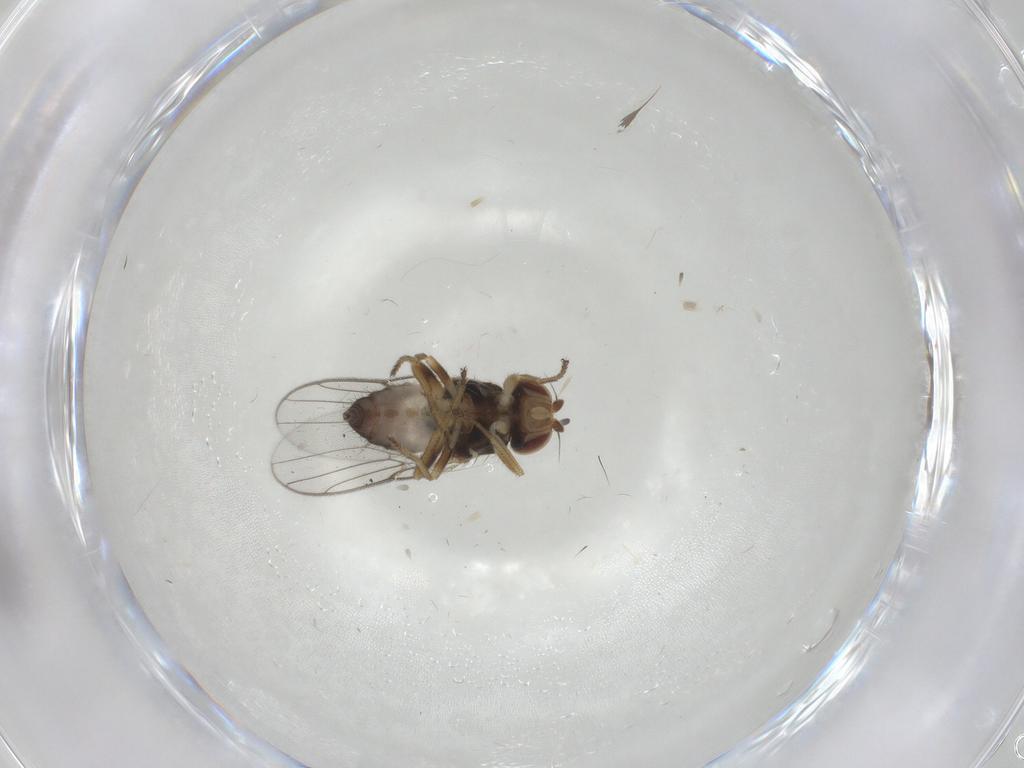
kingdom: Animalia
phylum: Arthropoda
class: Insecta
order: Diptera
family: Chloropidae
